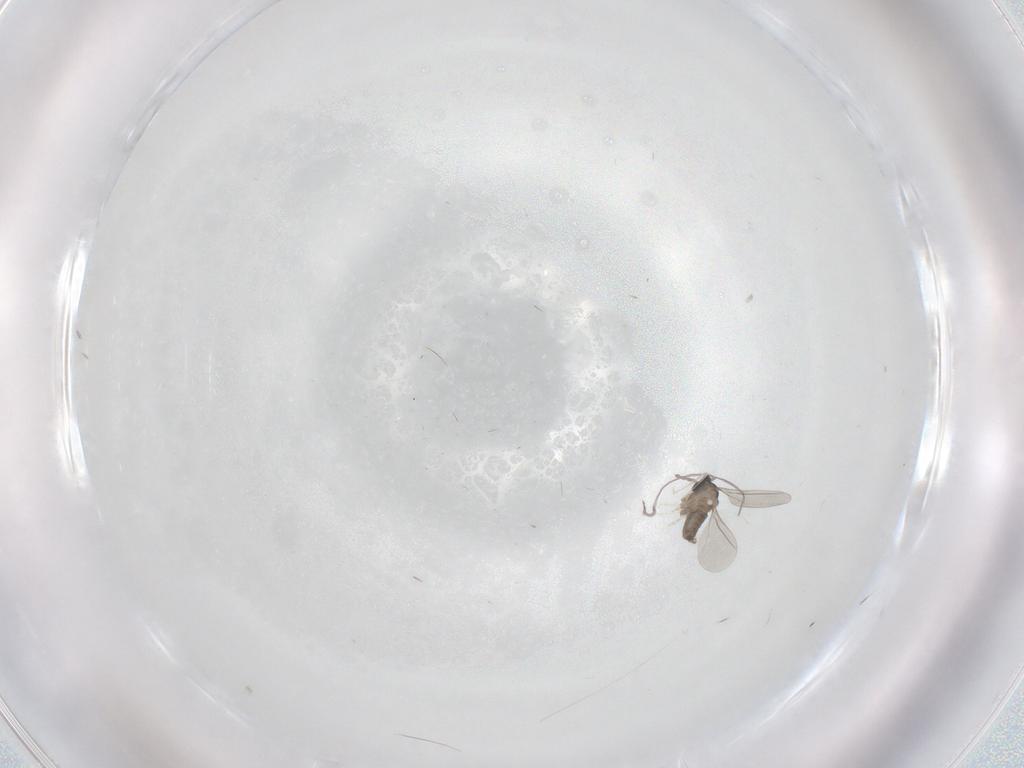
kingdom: Animalia
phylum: Arthropoda
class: Insecta
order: Diptera
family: Cecidomyiidae
